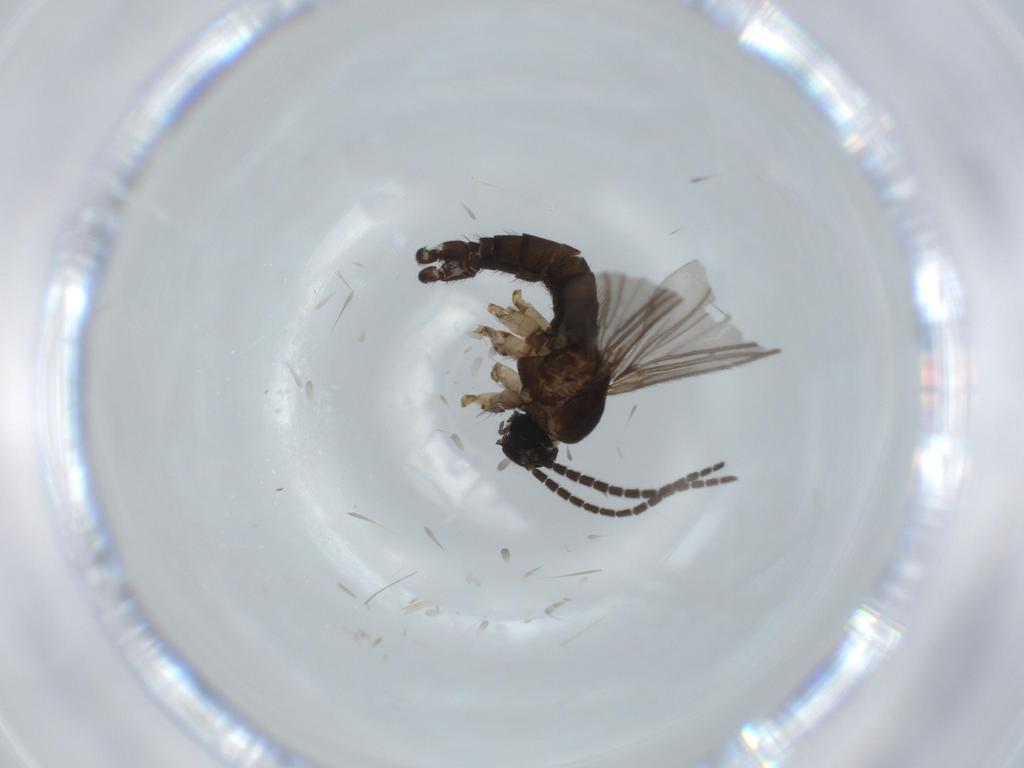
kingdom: Animalia
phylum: Arthropoda
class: Insecta
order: Diptera
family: Sciaridae
